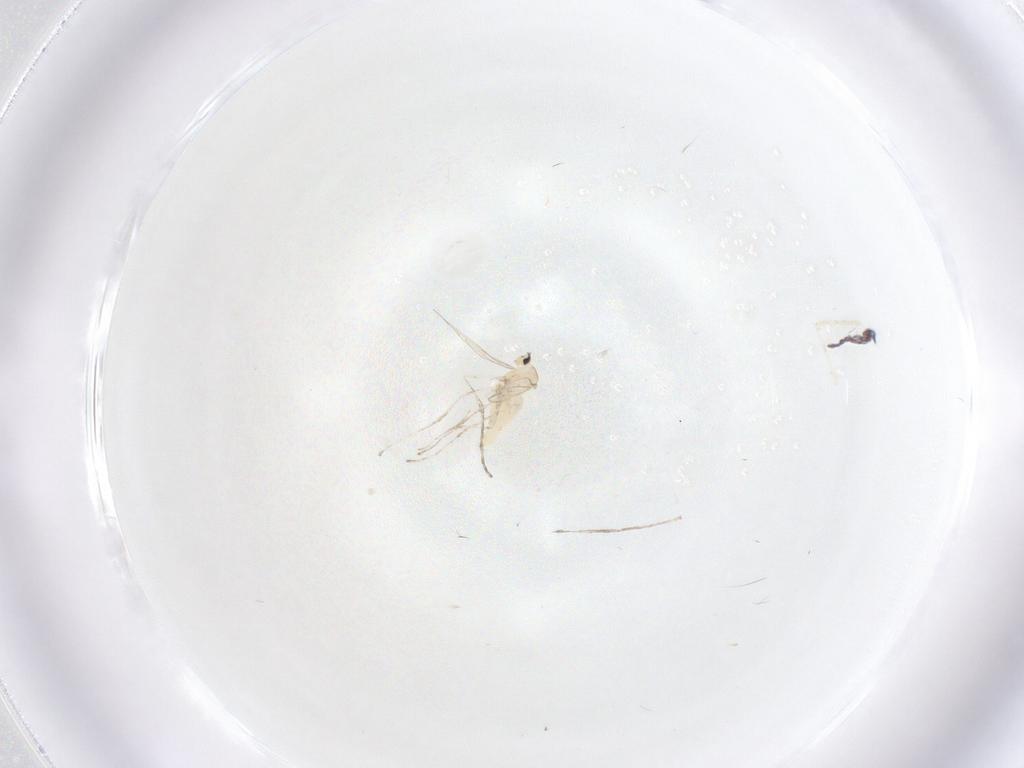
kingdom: Animalia
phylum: Arthropoda
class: Insecta
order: Diptera
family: Cecidomyiidae
